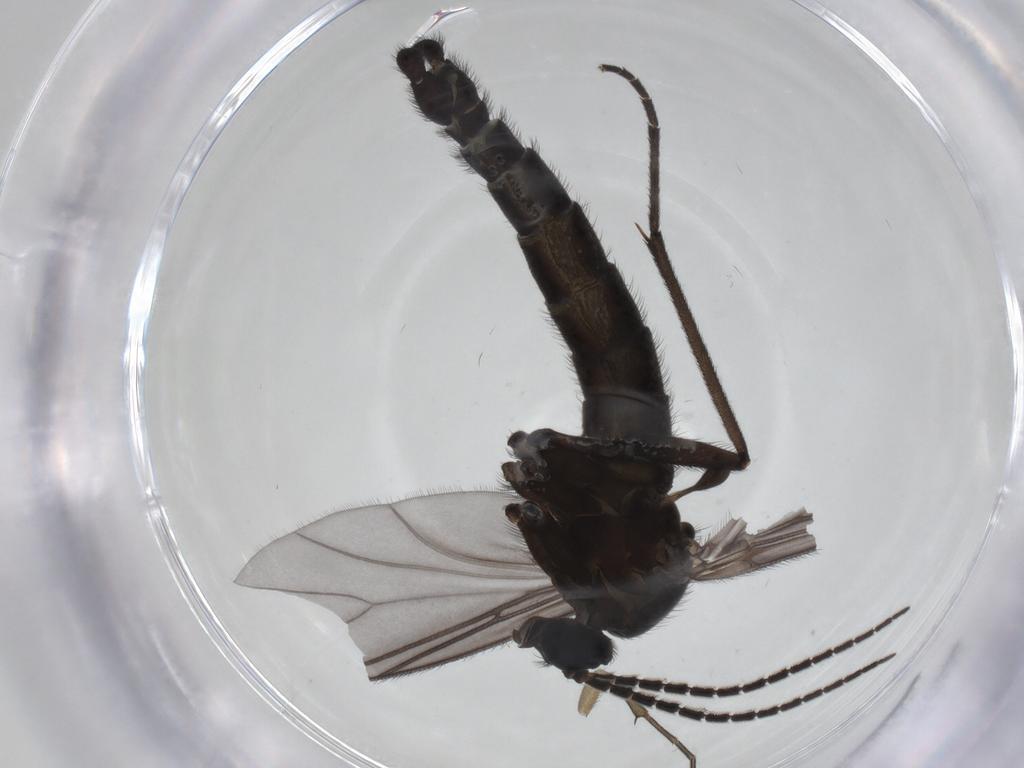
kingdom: Animalia
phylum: Arthropoda
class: Insecta
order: Diptera
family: Keroplatidae
